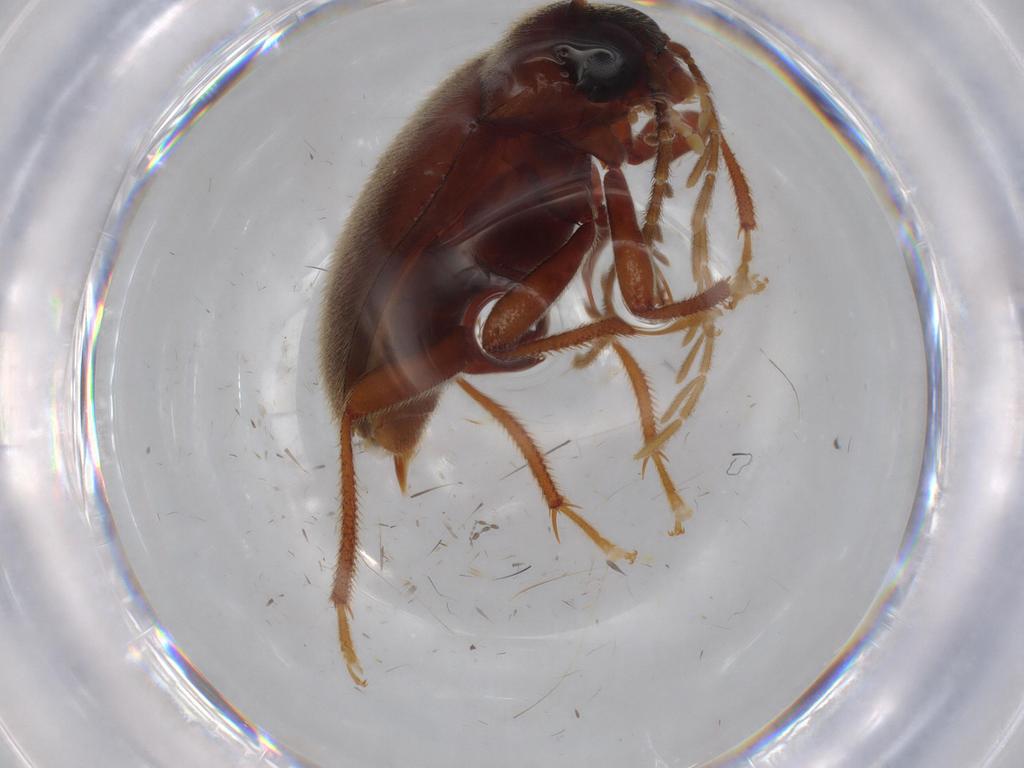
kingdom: Animalia
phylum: Arthropoda
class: Insecta
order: Coleoptera
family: Ptilodactylidae
